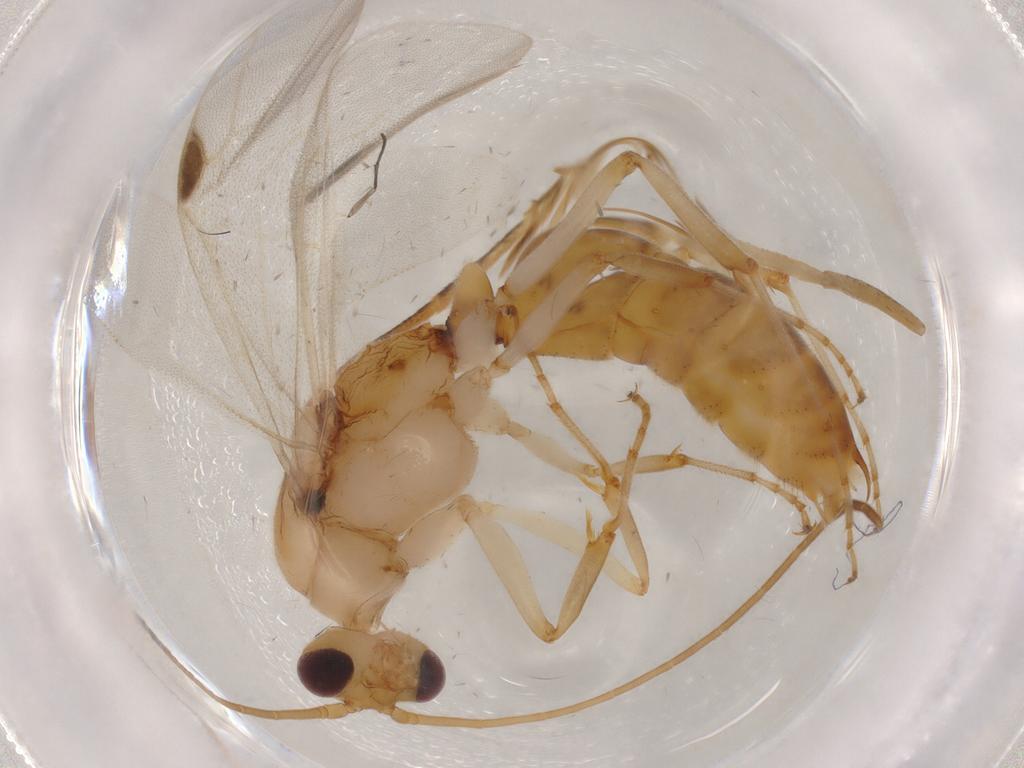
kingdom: Animalia
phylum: Arthropoda
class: Insecta
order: Hymenoptera
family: Formicidae
